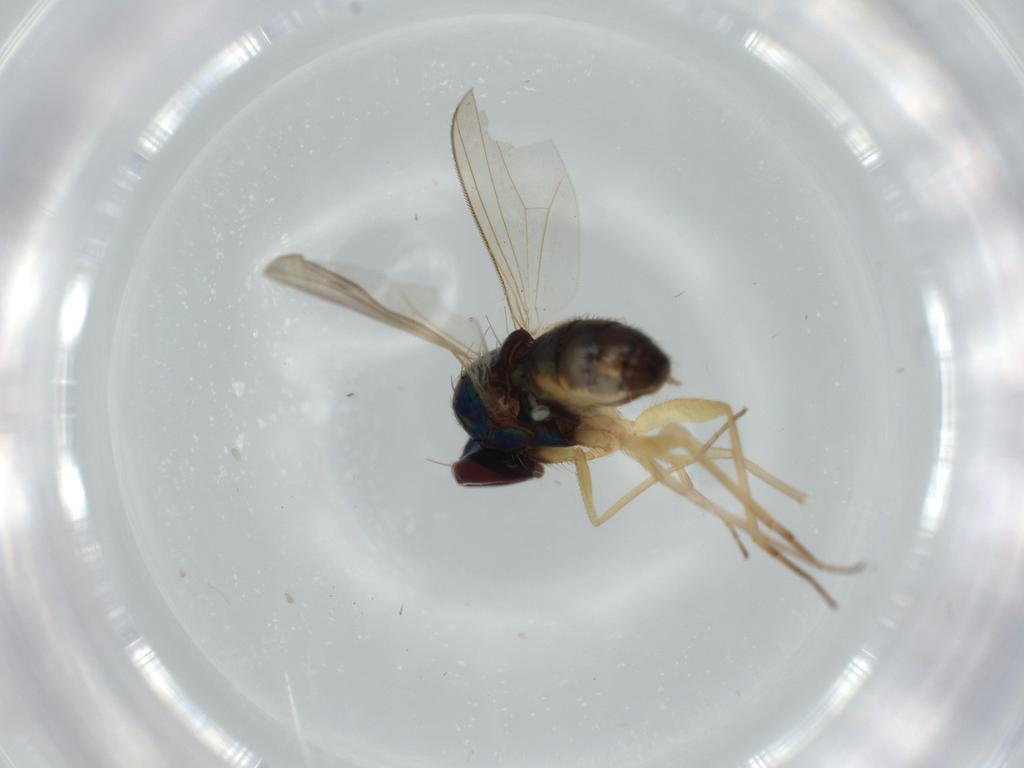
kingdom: Animalia
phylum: Arthropoda
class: Insecta
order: Diptera
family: Dolichopodidae
